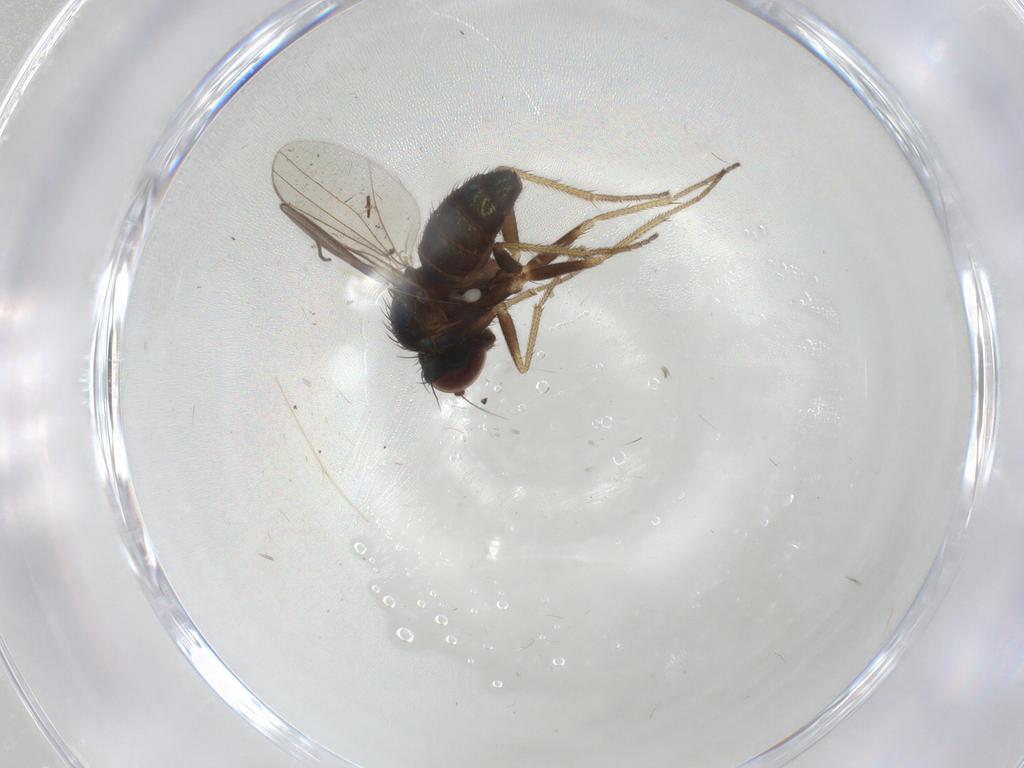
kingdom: Animalia
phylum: Arthropoda
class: Insecta
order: Diptera
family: Chironomidae
